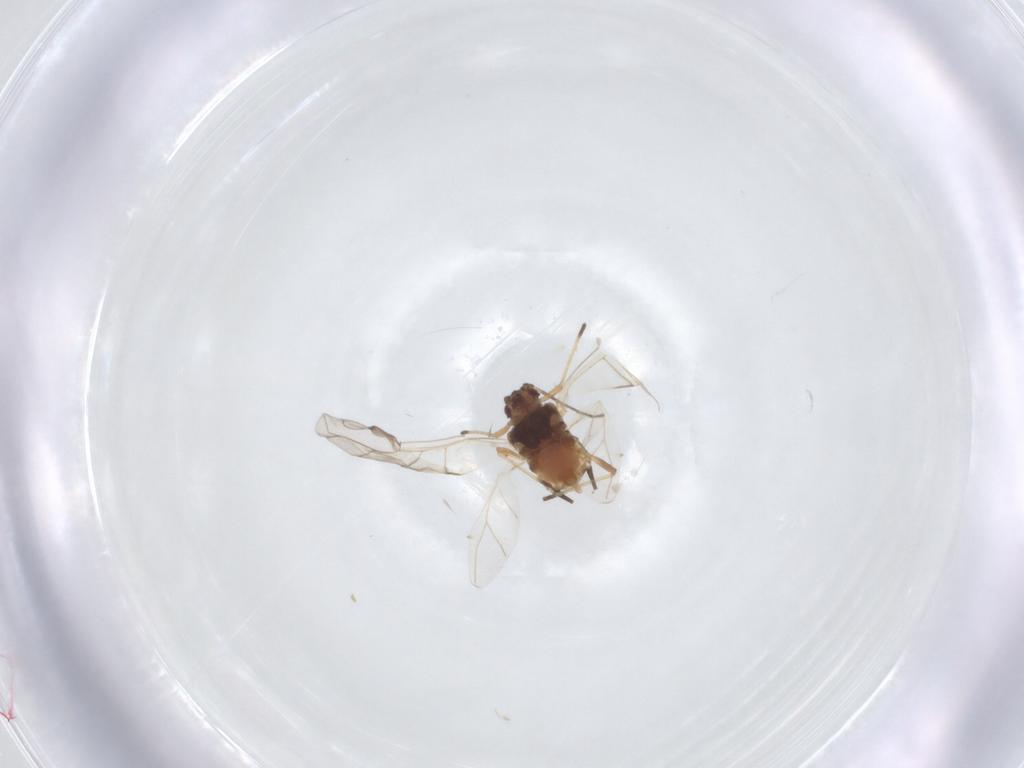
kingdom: Animalia
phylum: Arthropoda
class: Insecta
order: Hemiptera
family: Aphididae
